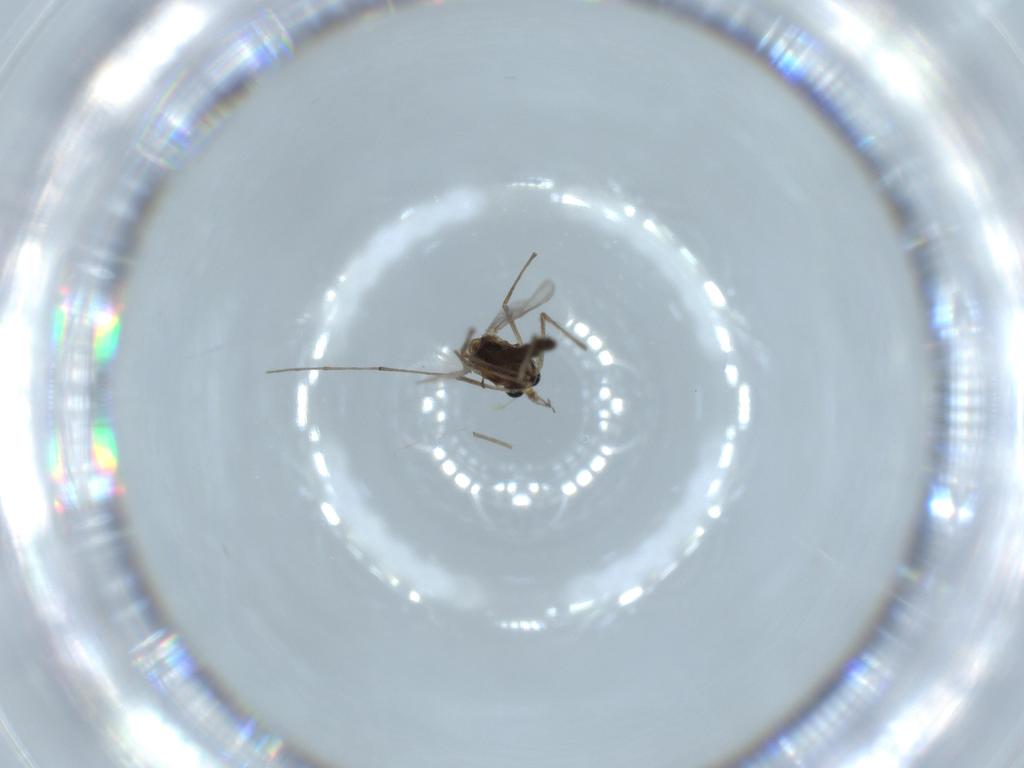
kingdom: Animalia
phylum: Arthropoda
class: Insecta
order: Diptera
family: Chironomidae
